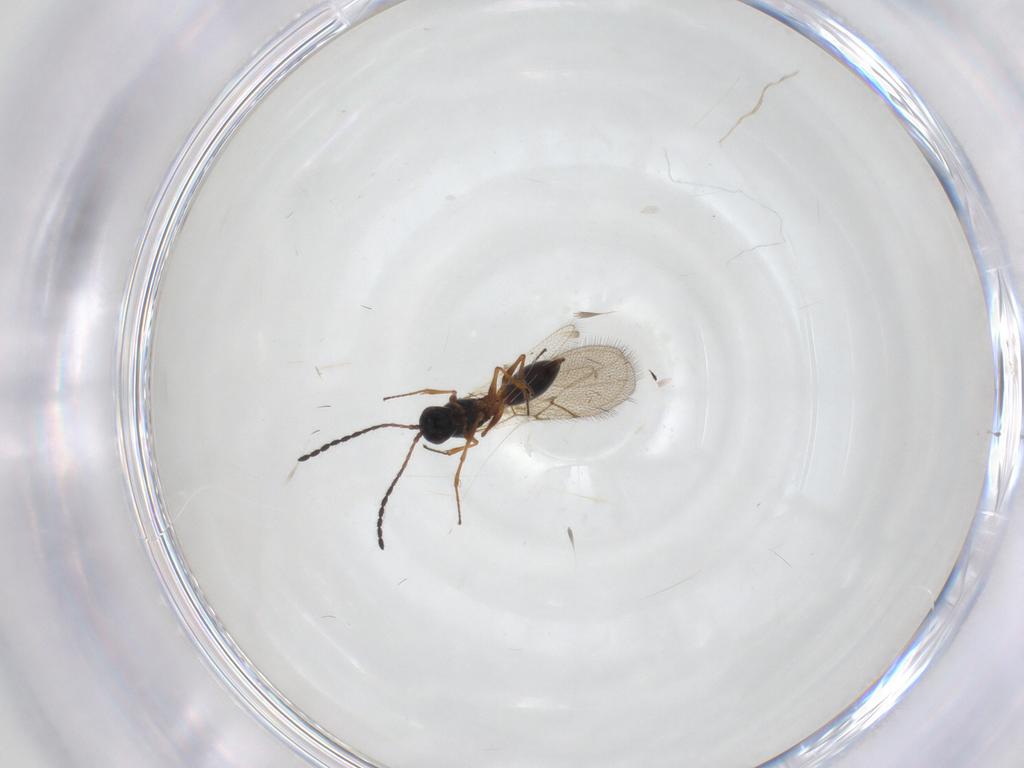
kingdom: Animalia
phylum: Arthropoda
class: Insecta
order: Hymenoptera
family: Figitidae
